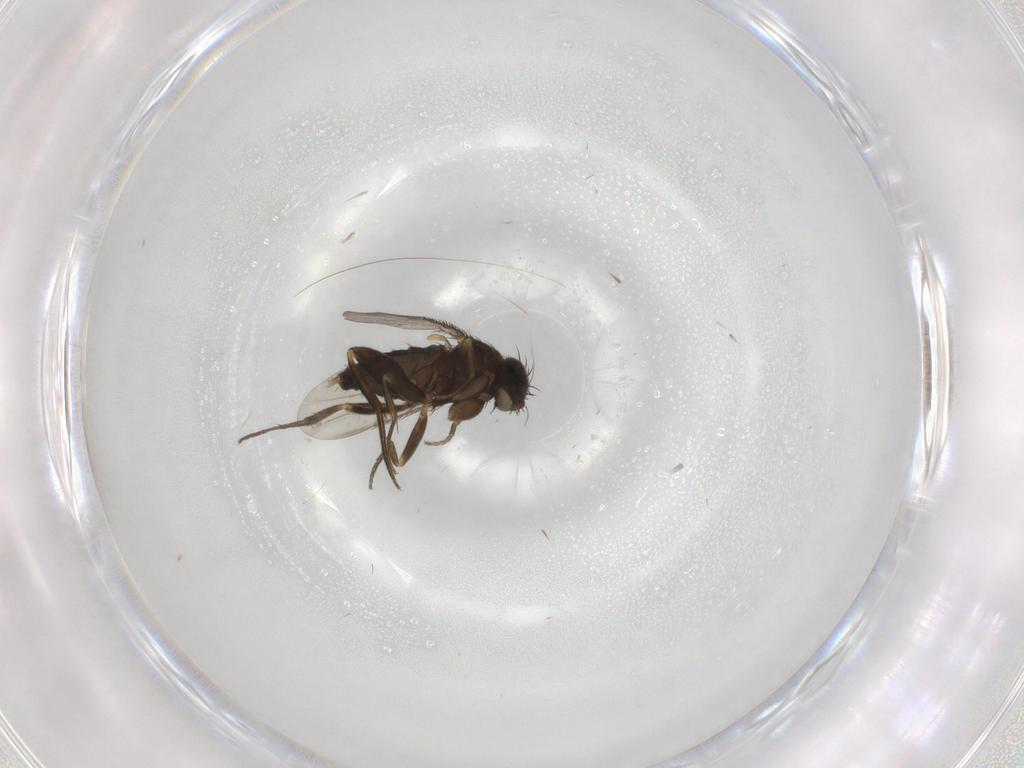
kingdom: Animalia
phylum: Arthropoda
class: Insecta
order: Diptera
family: Phoridae
